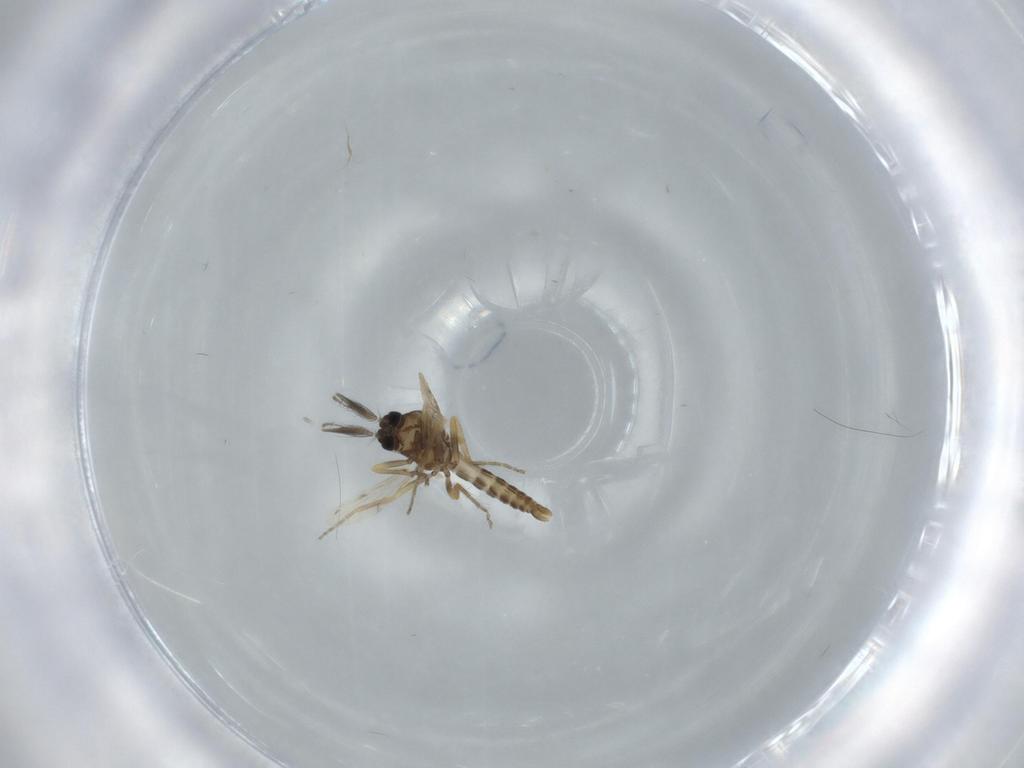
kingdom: Animalia
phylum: Arthropoda
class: Insecta
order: Diptera
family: Ceratopogonidae
